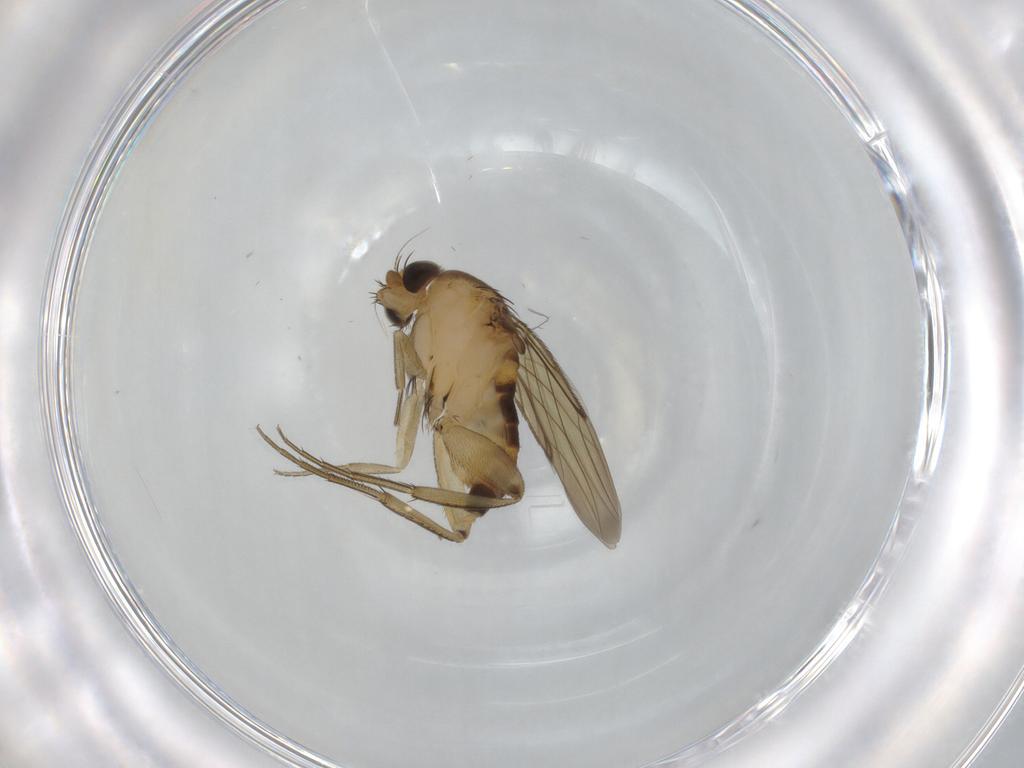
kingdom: Animalia
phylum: Arthropoda
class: Insecta
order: Diptera
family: Phoridae
